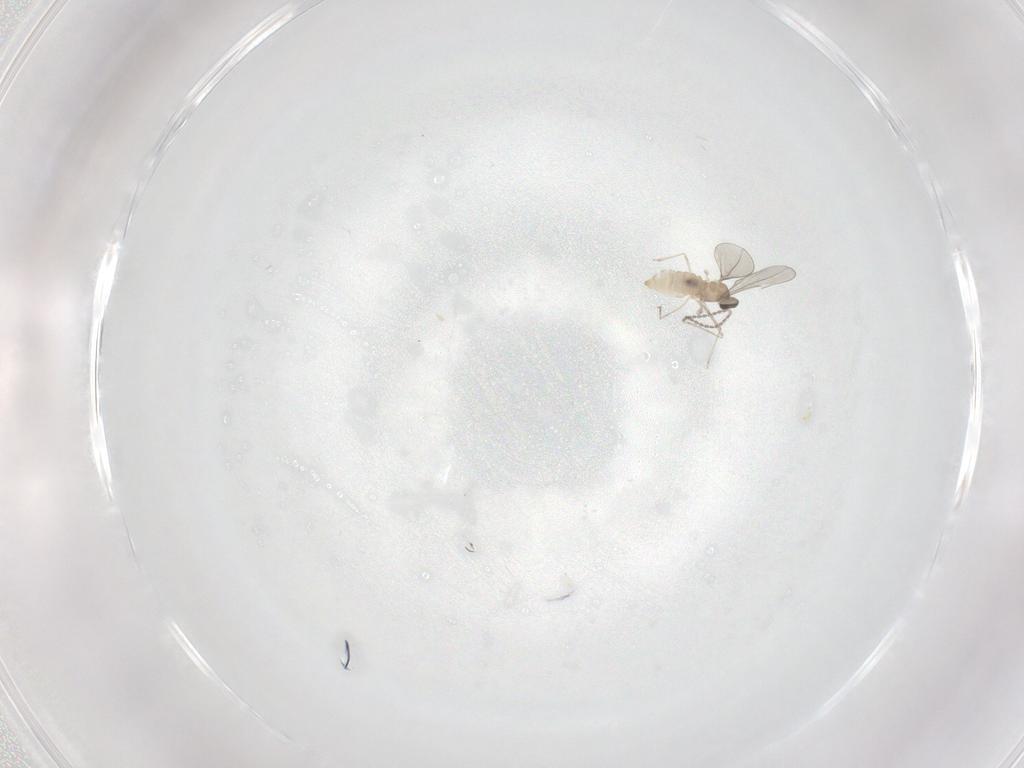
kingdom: Animalia
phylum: Arthropoda
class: Insecta
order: Diptera
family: Cecidomyiidae
